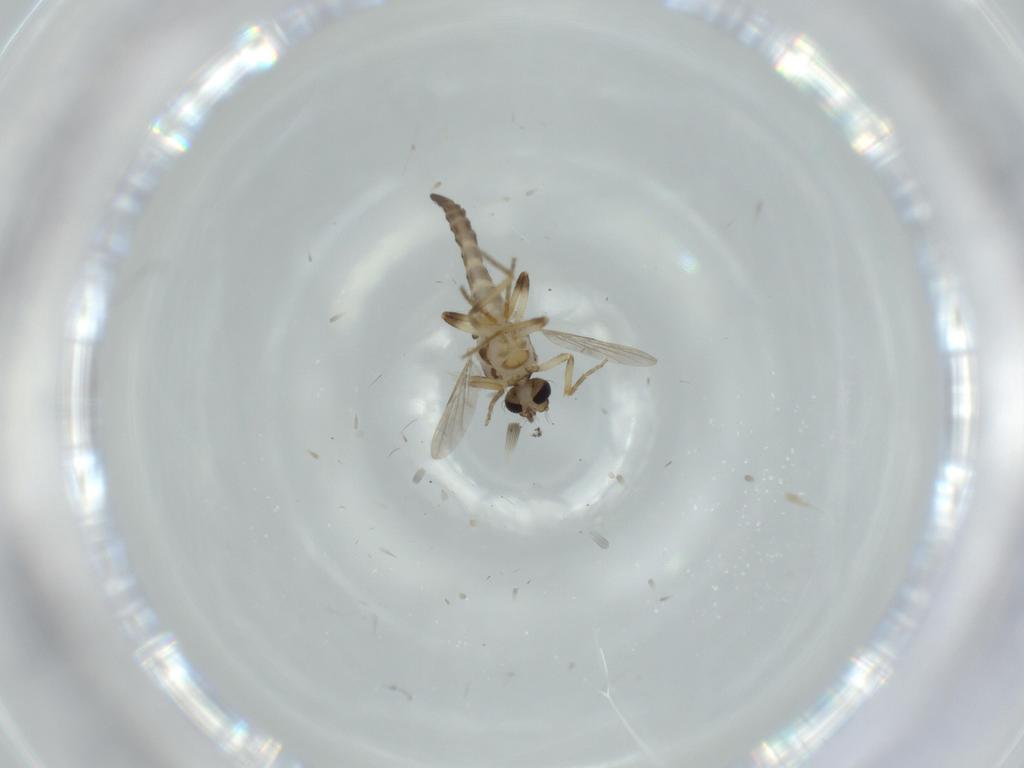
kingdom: Animalia
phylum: Arthropoda
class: Insecta
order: Diptera
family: Ceratopogonidae
